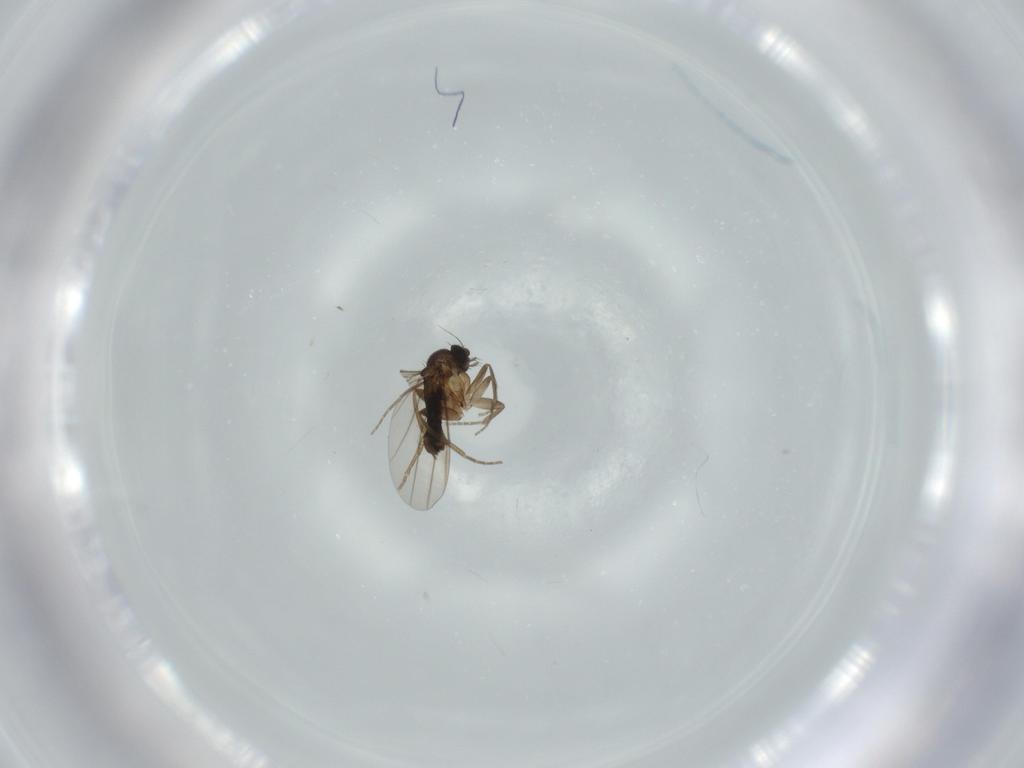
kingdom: Animalia
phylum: Arthropoda
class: Insecta
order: Diptera
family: Phoridae
